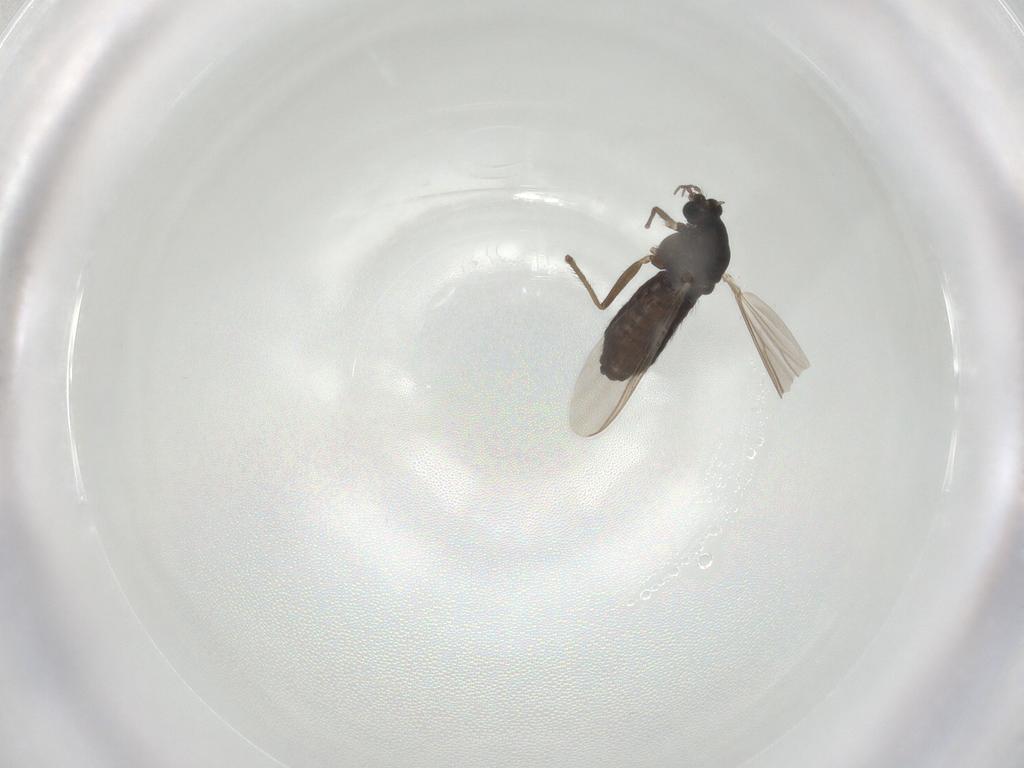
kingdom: Animalia
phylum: Arthropoda
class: Insecta
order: Diptera
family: Chironomidae
